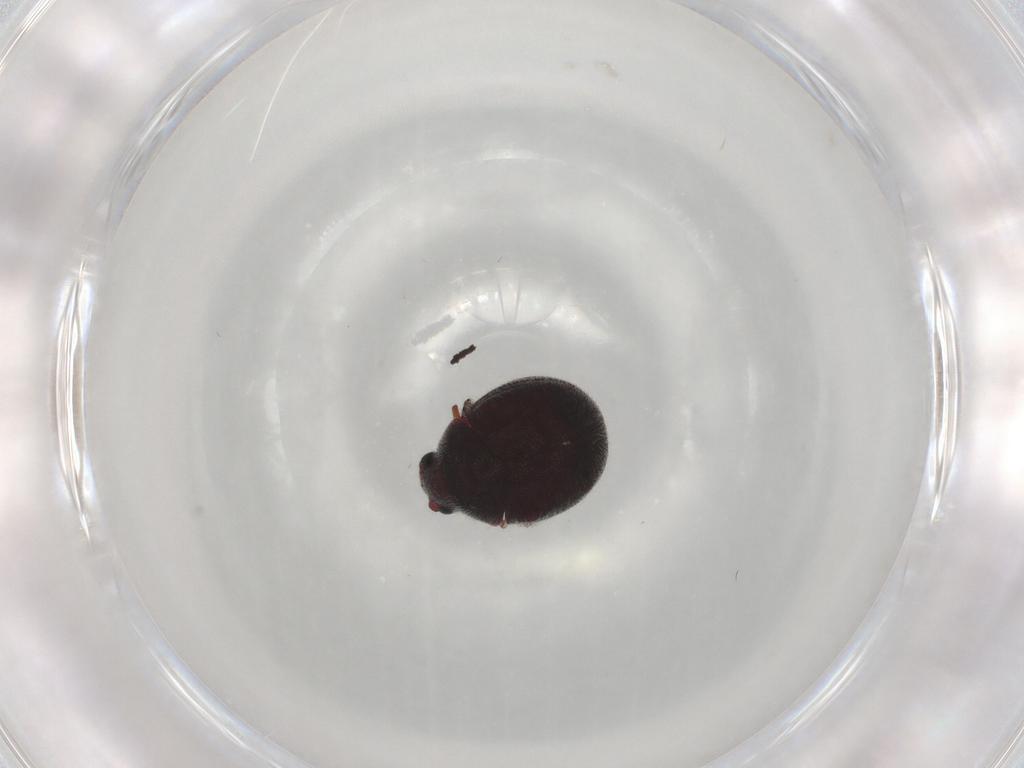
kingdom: Animalia
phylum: Arthropoda
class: Insecta
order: Coleoptera
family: Ptinidae
